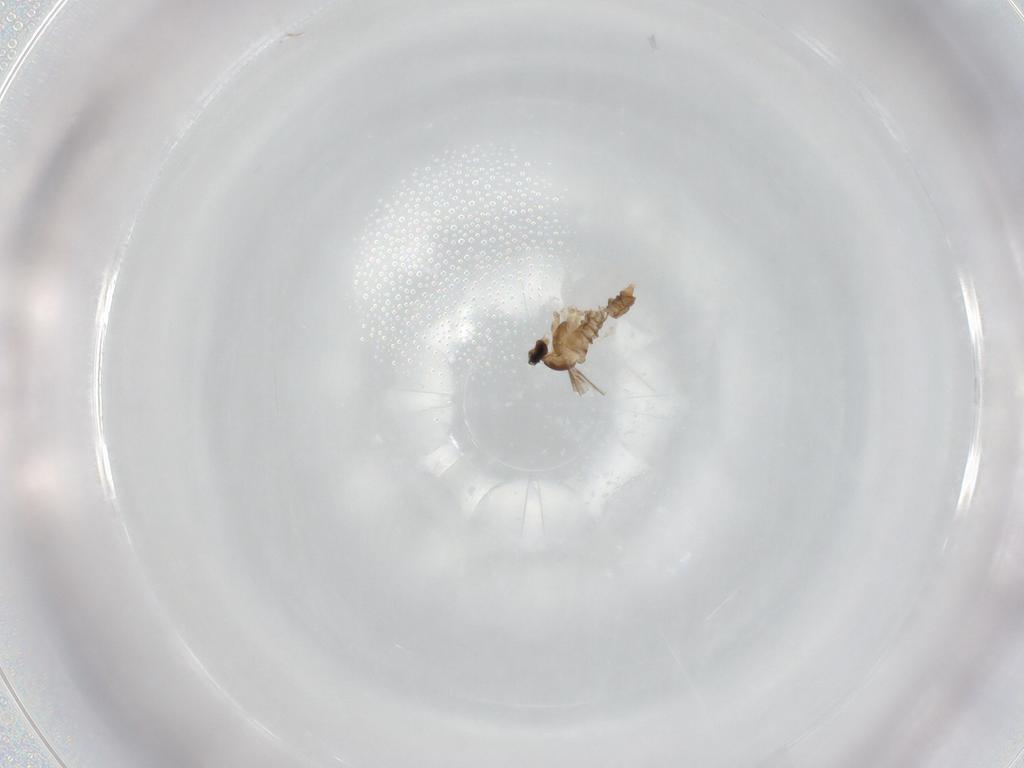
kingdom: Animalia
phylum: Arthropoda
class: Insecta
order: Diptera
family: Cecidomyiidae
